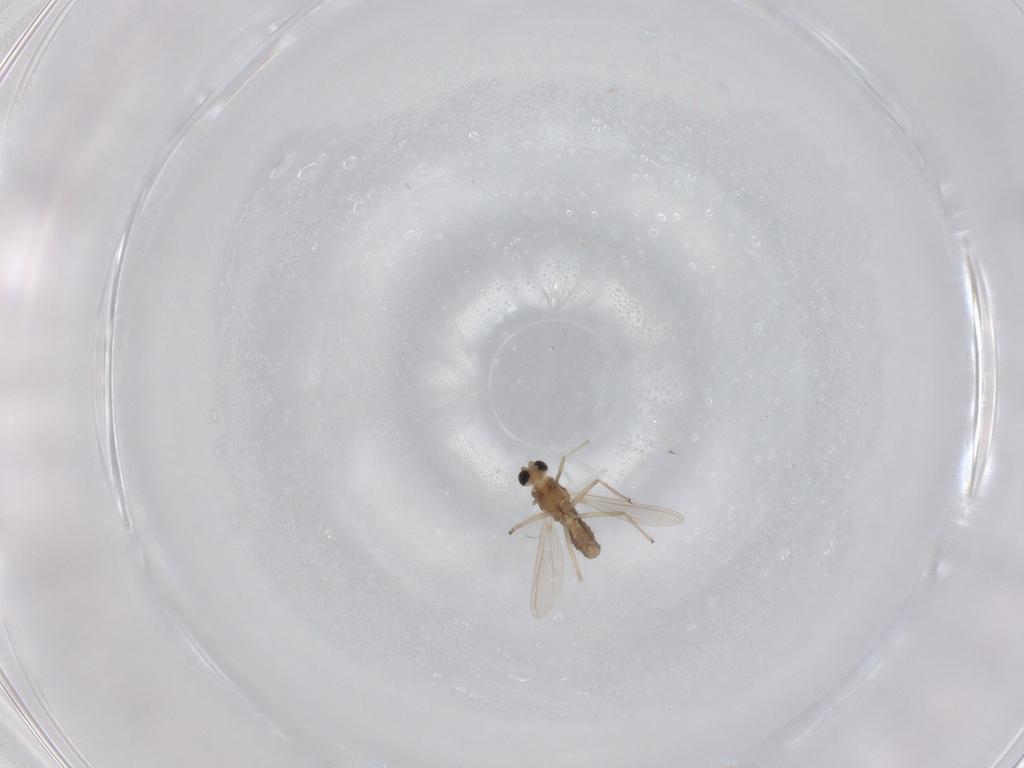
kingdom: Animalia
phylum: Arthropoda
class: Insecta
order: Diptera
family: Chironomidae
